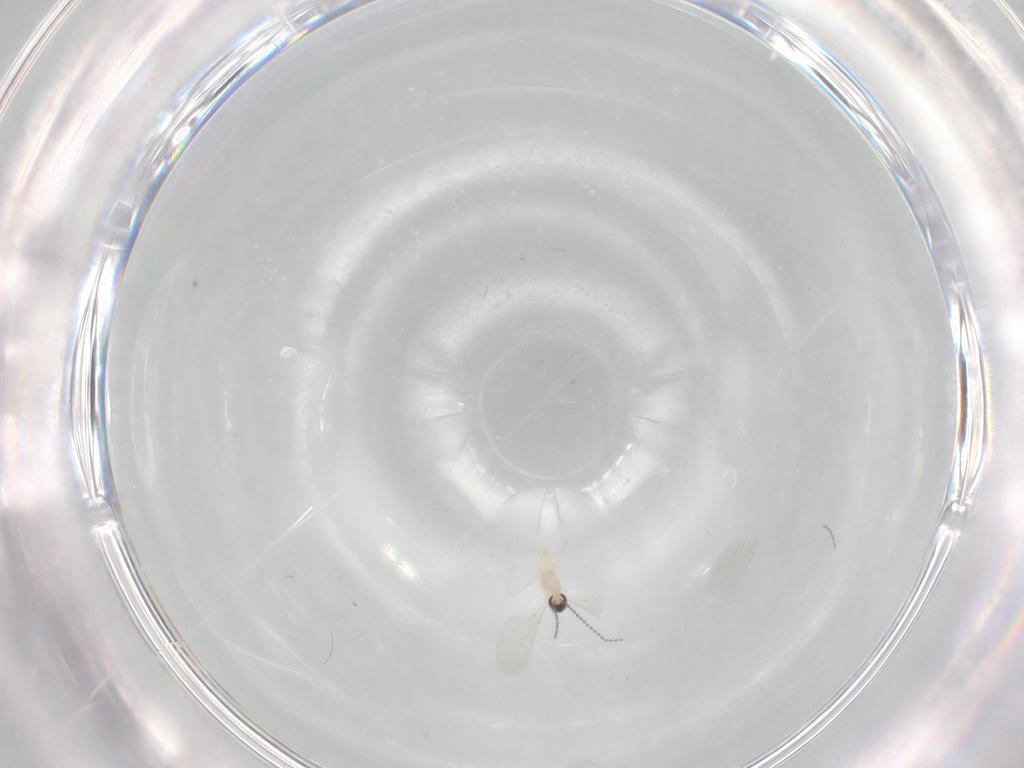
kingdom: Animalia
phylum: Arthropoda
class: Insecta
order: Diptera
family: Cecidomyiidae
